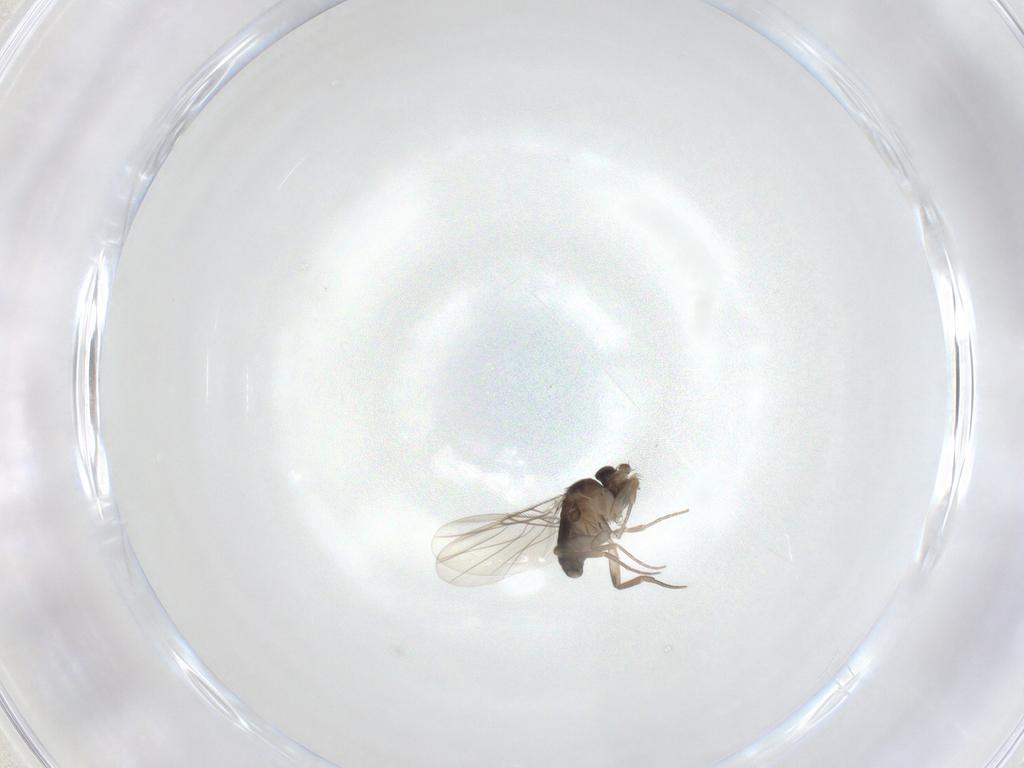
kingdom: Animalia
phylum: Arthropoda
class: Insecta
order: Diptera
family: Phoridae
